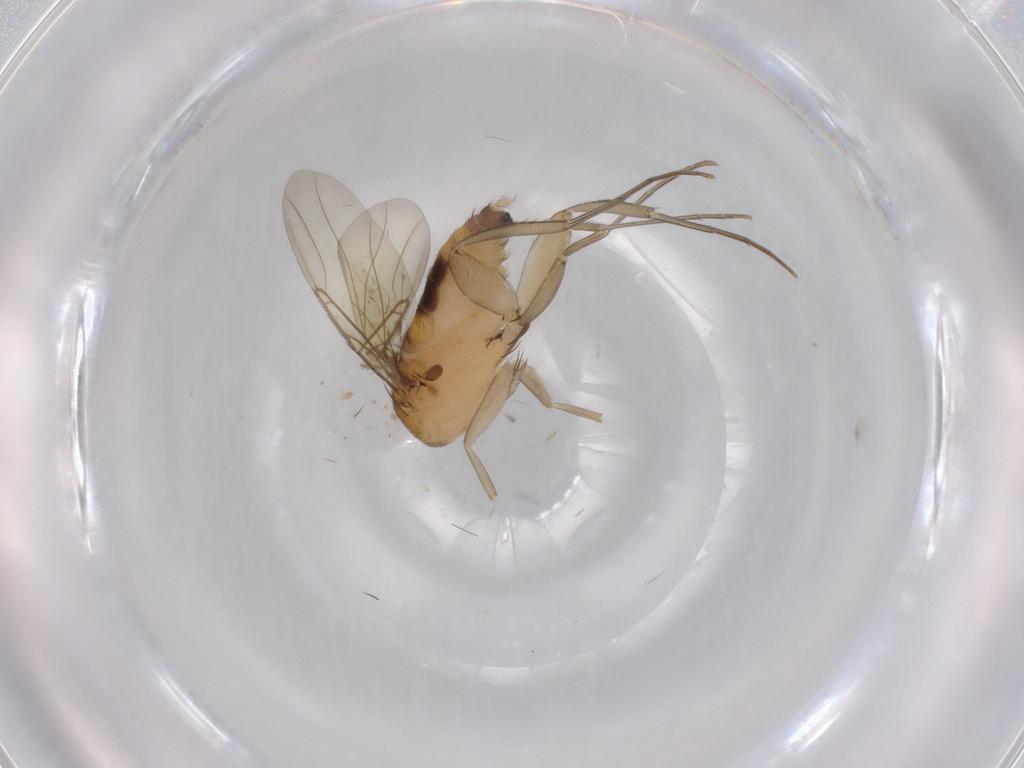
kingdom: Animalia
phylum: Arthropoda
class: Insecta
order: Diptera
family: Phoridae
